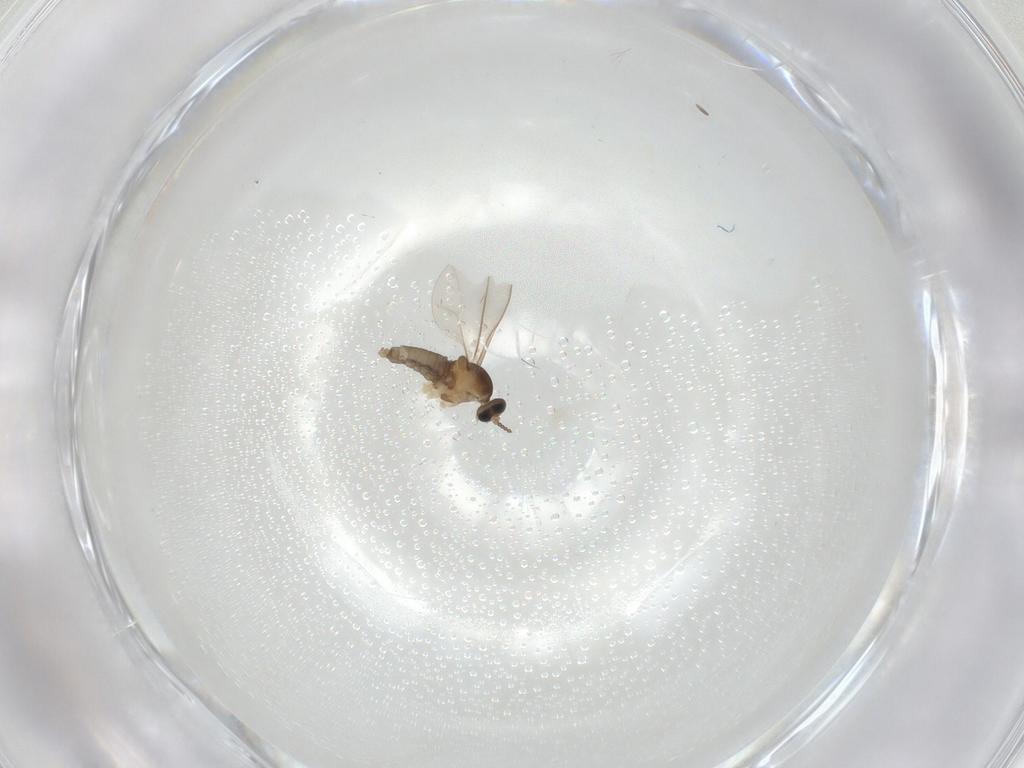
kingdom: Animalia
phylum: Arthropoda
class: Insecta
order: Diptera
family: Cecidomyiidae
